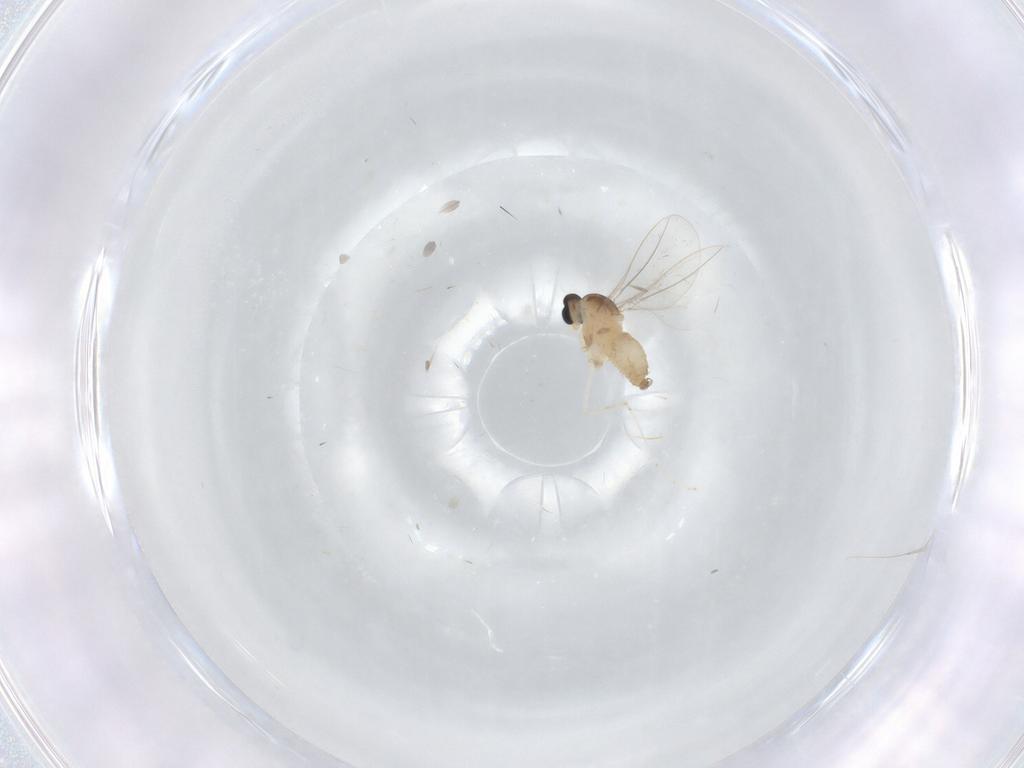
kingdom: Animalia
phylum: Arthropoda
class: Insecta
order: Diptera
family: Cecidomyiidae
